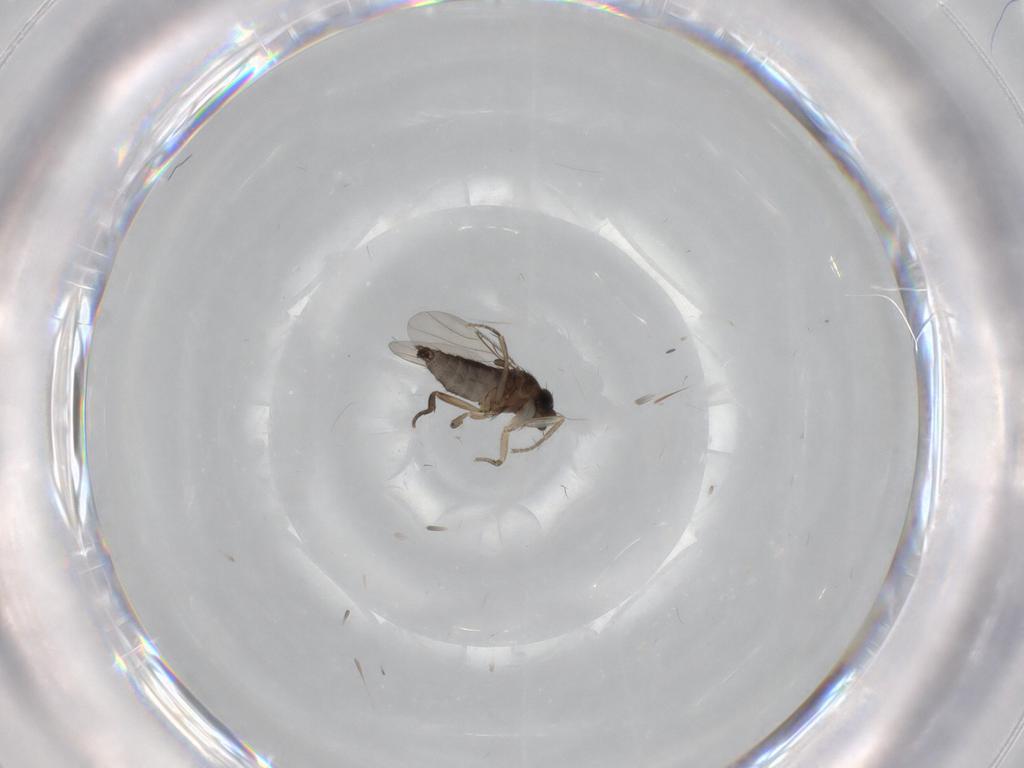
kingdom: Animalia
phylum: Arthropoda
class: Insecta
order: Diptera
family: Phoridae
